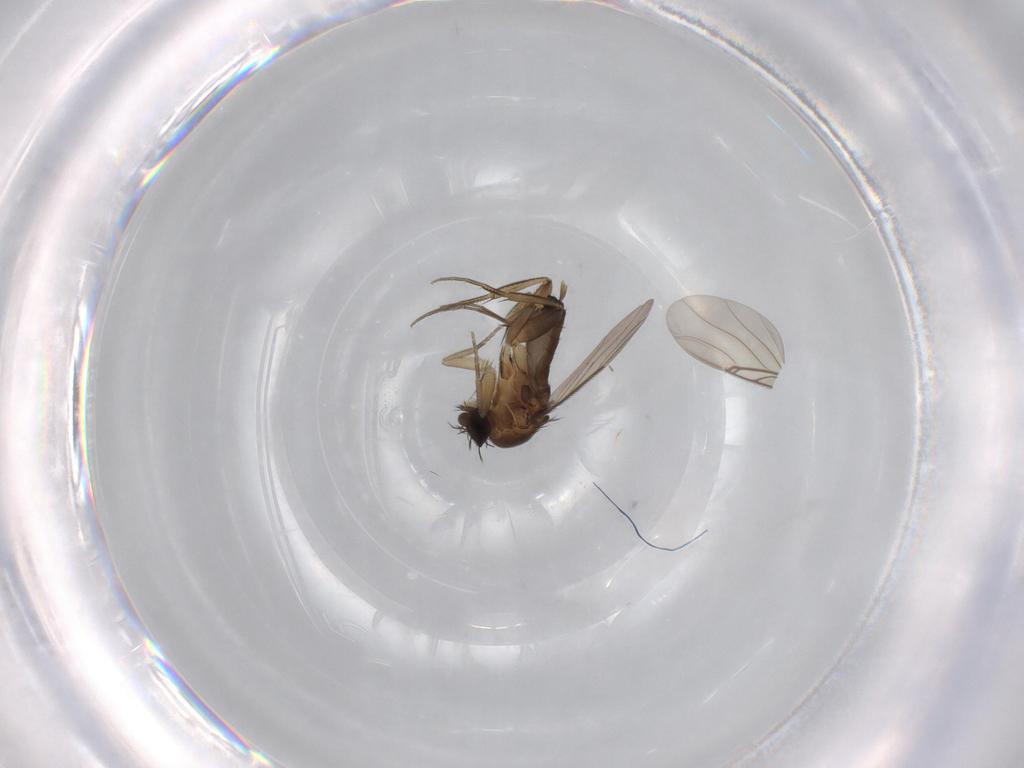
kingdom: Animalia
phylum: Arthropoda
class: Insecta
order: Diptera
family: Phoridae
